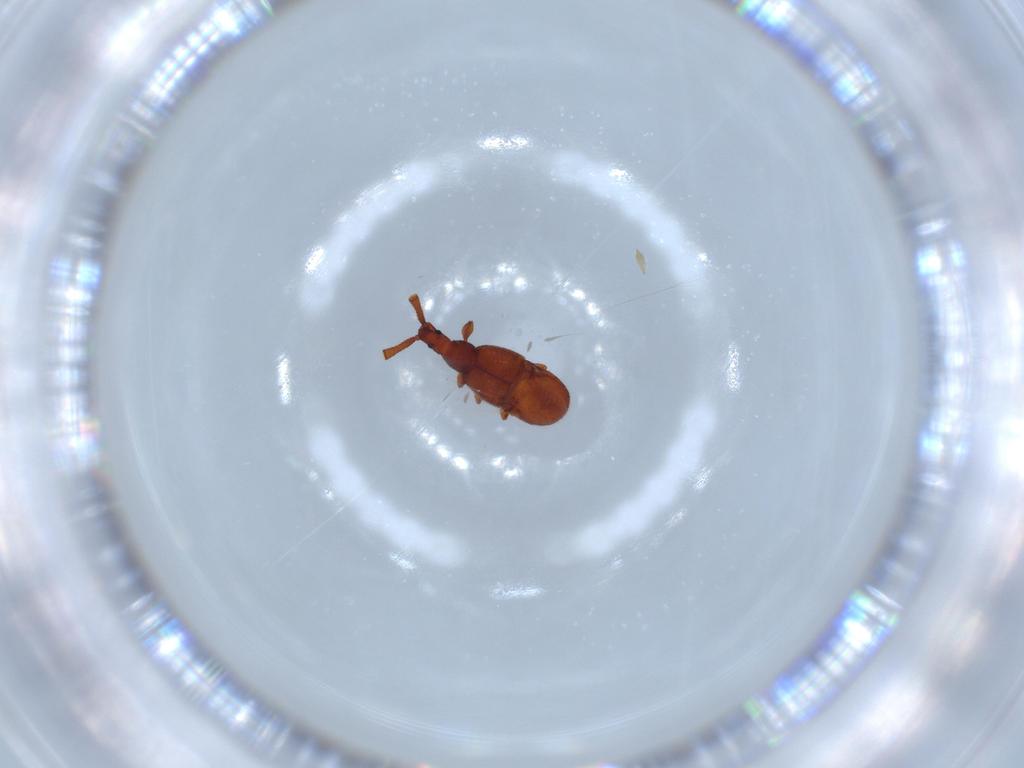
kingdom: Animalia
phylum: Arthropoda
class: Insecta
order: Coleoptera
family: Staphylinidae
